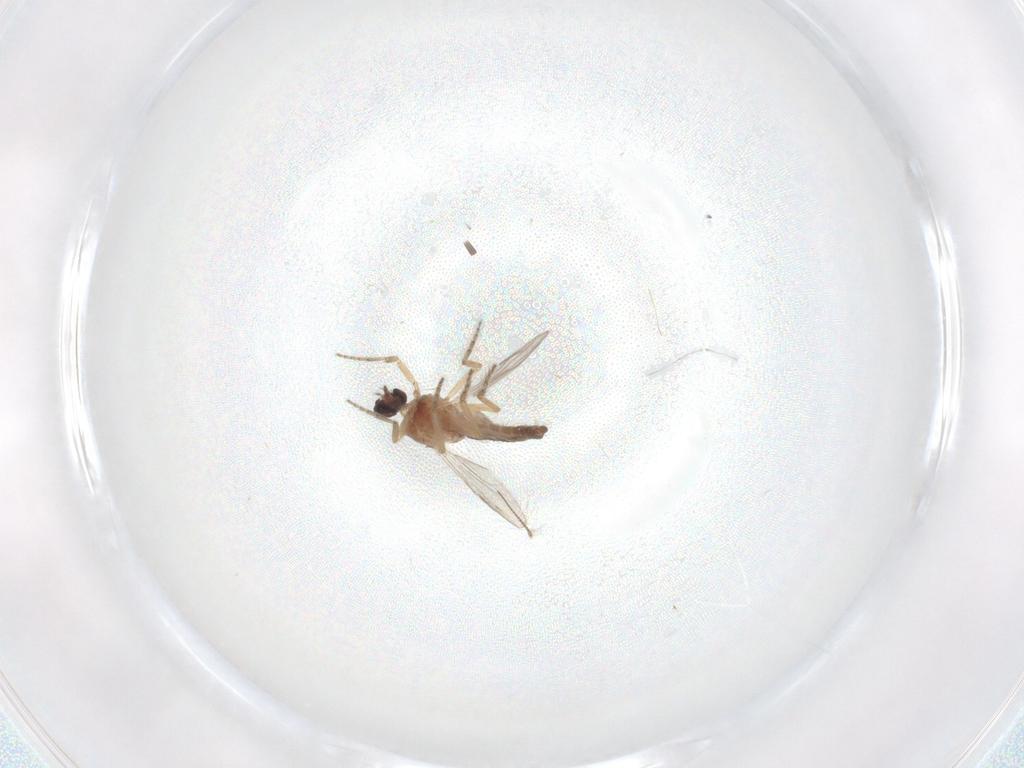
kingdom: Animalia
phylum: Arthropoda
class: Insecta
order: Diptera
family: Ceratopogonidae
